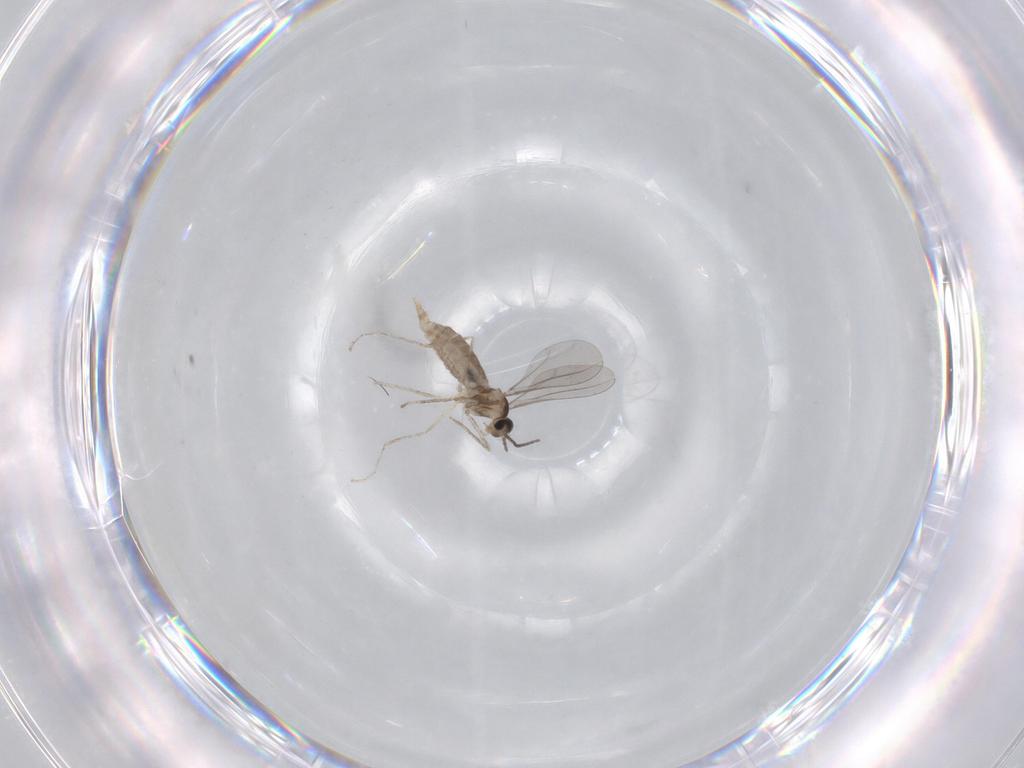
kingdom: Animalia
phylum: Arthropoda
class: Insecta
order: Diptera
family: Psychodidae
